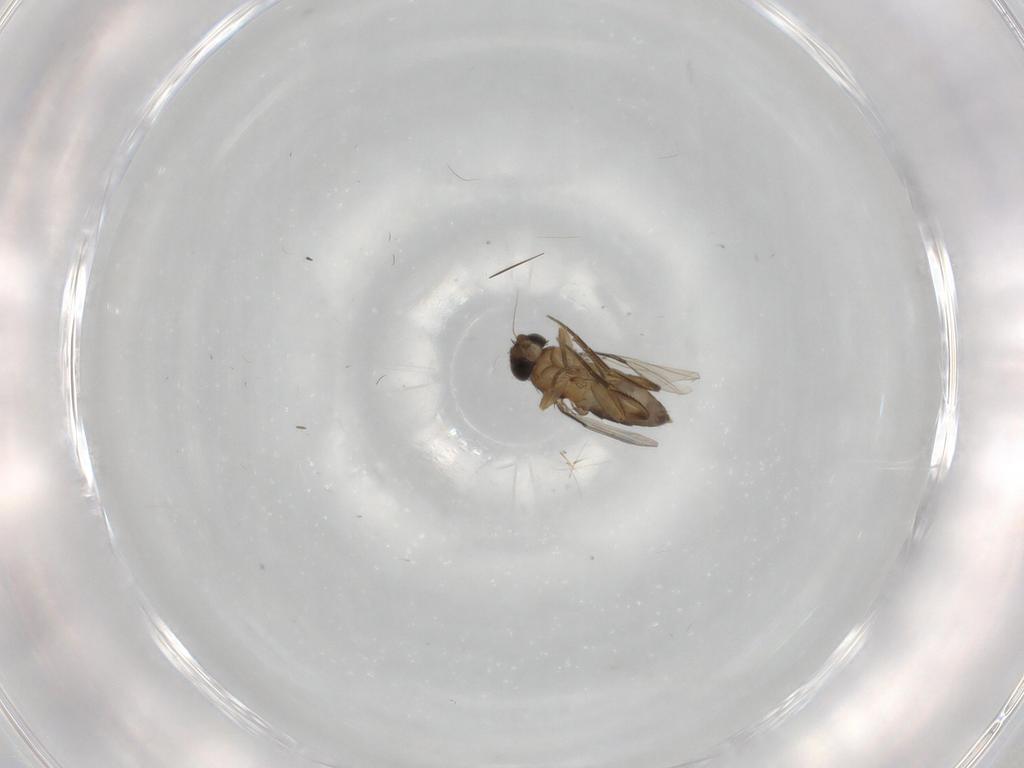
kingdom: Animalia
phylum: Arthropoda
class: Insecta
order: Diptera
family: Phoridae
